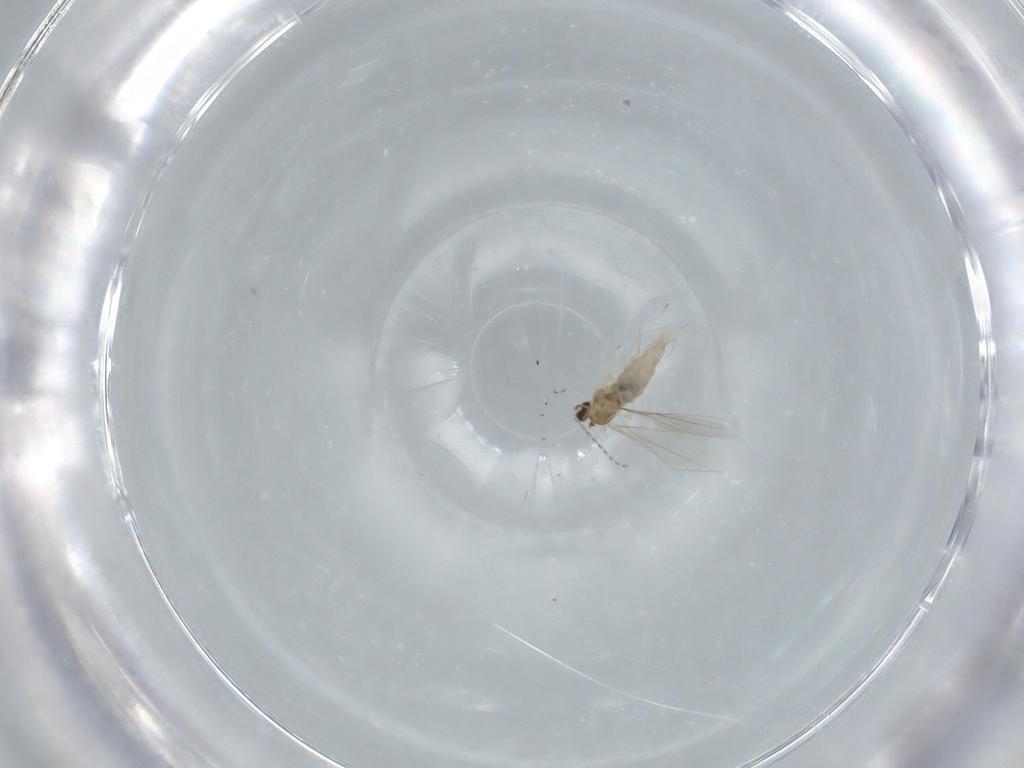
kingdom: Animalia
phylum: Arthropoda
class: Insecta
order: Diptera
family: Cecidomyiidae
